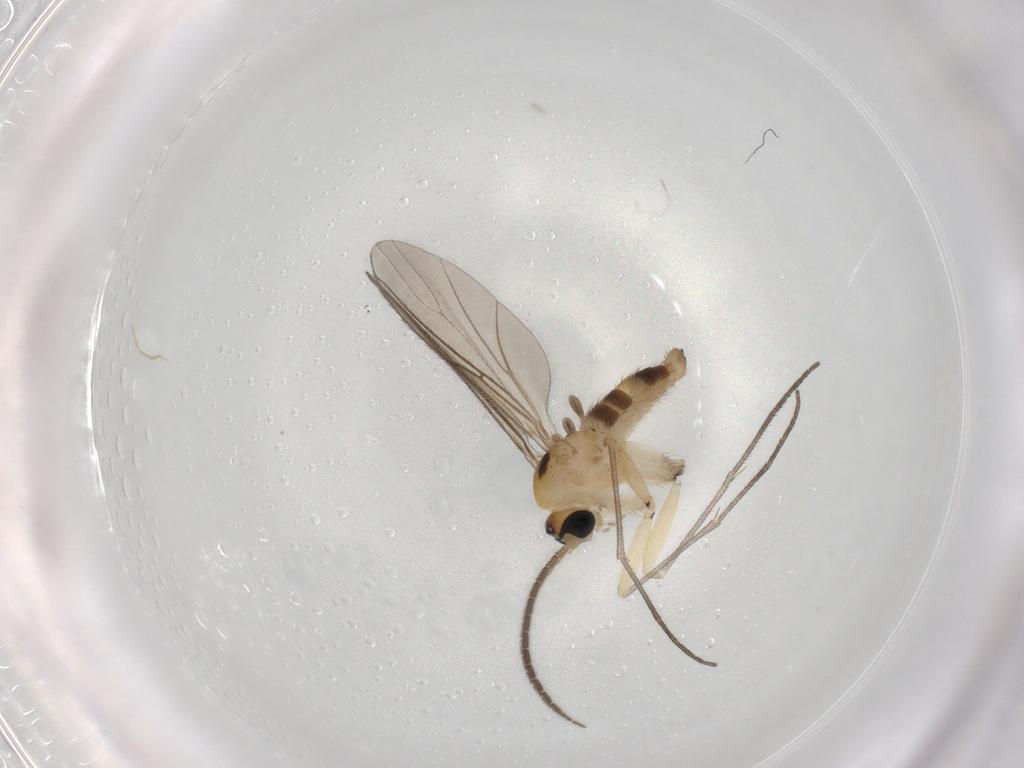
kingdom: Animalia
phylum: Arthropoda
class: Insecta
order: Diptera
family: Sciaridae
